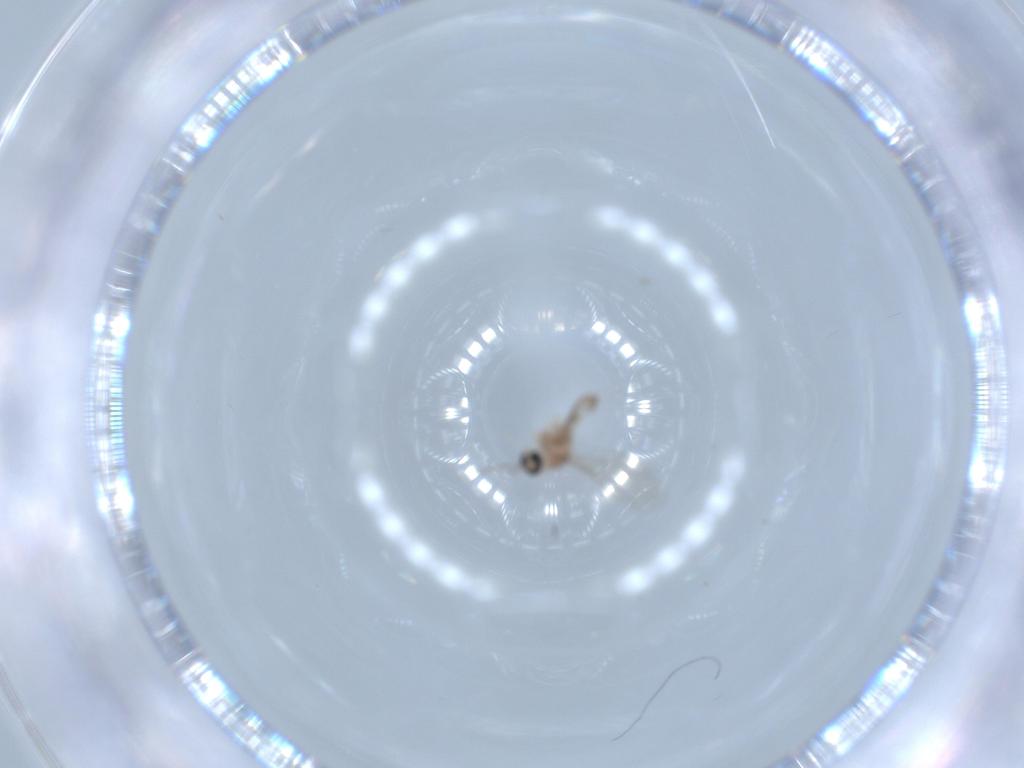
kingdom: Animalia
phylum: Arthropoda
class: Insecta
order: Diptera
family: Cecidomyiidae
